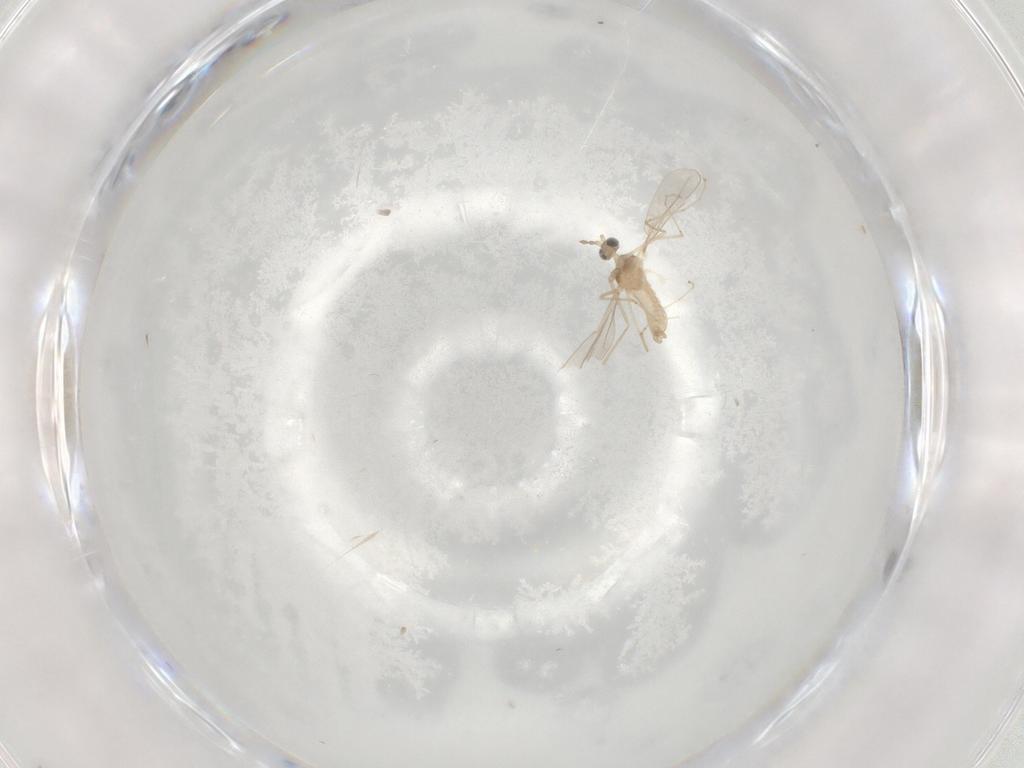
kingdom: Animalia
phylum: Arthropoda
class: Insecta
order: Diptera
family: Cecidomyiidae
